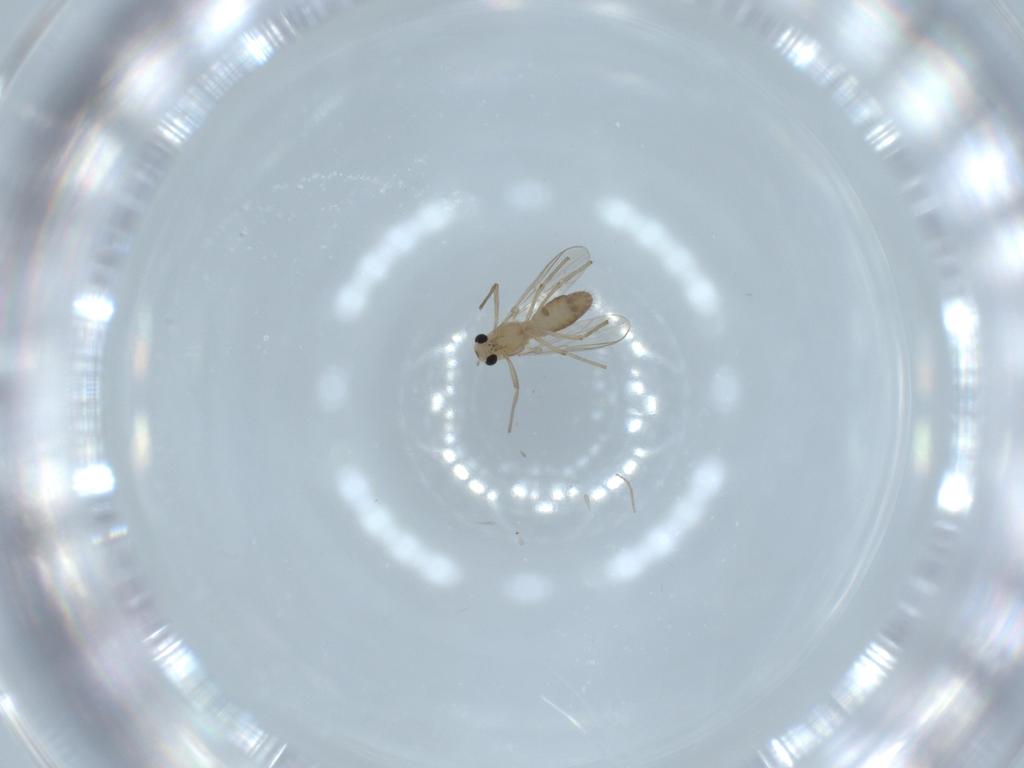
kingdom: Animalia
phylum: Arthropoda
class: Insecta
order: Diptera
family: Chironomidae
